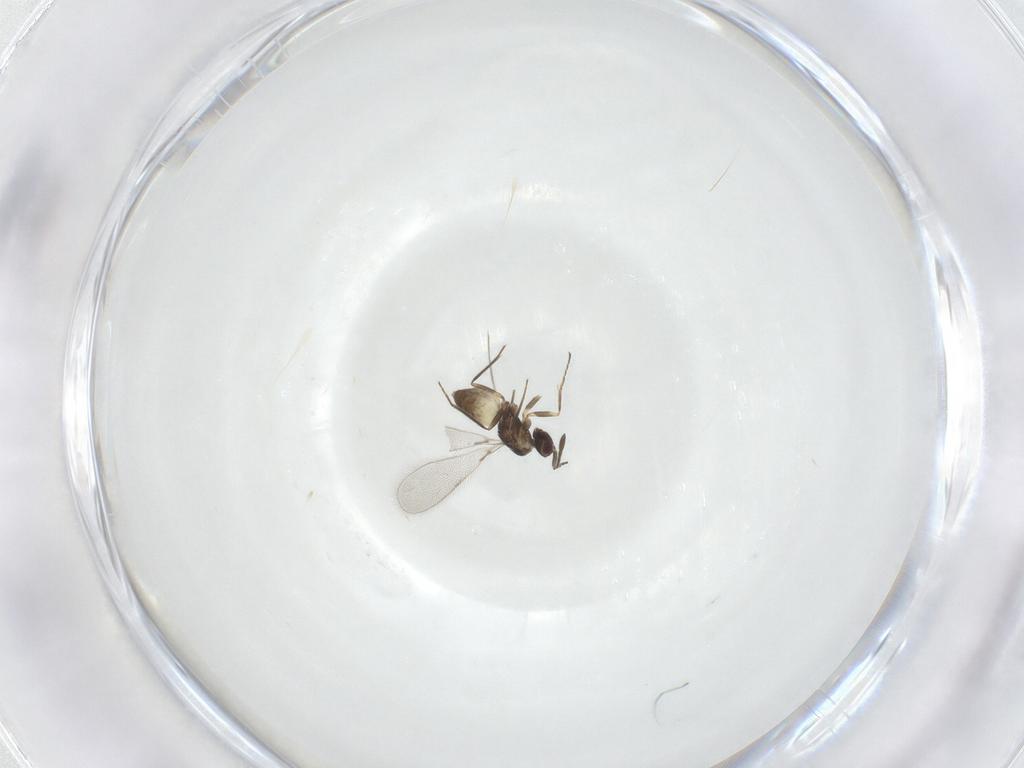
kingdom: Animalia
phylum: Arthropoda
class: Insecta
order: Hymenoptera
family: Mymaridae
